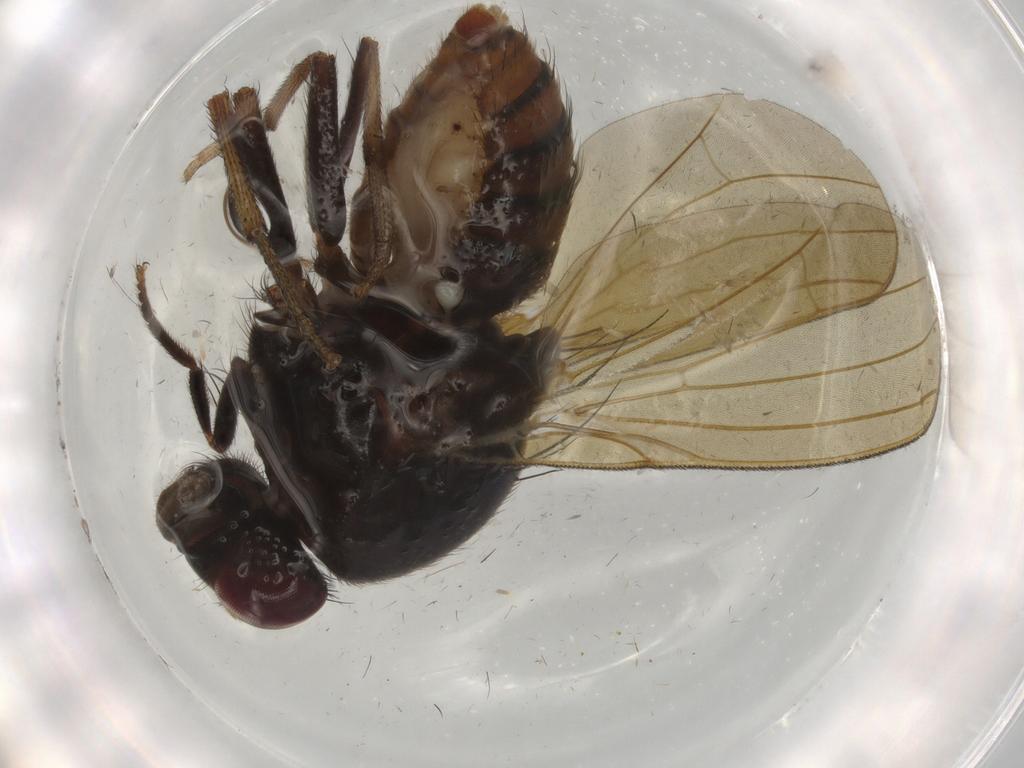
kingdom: Animalia
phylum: Arthropoda
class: Insecta
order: Diptera
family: Cecidomyiidae
